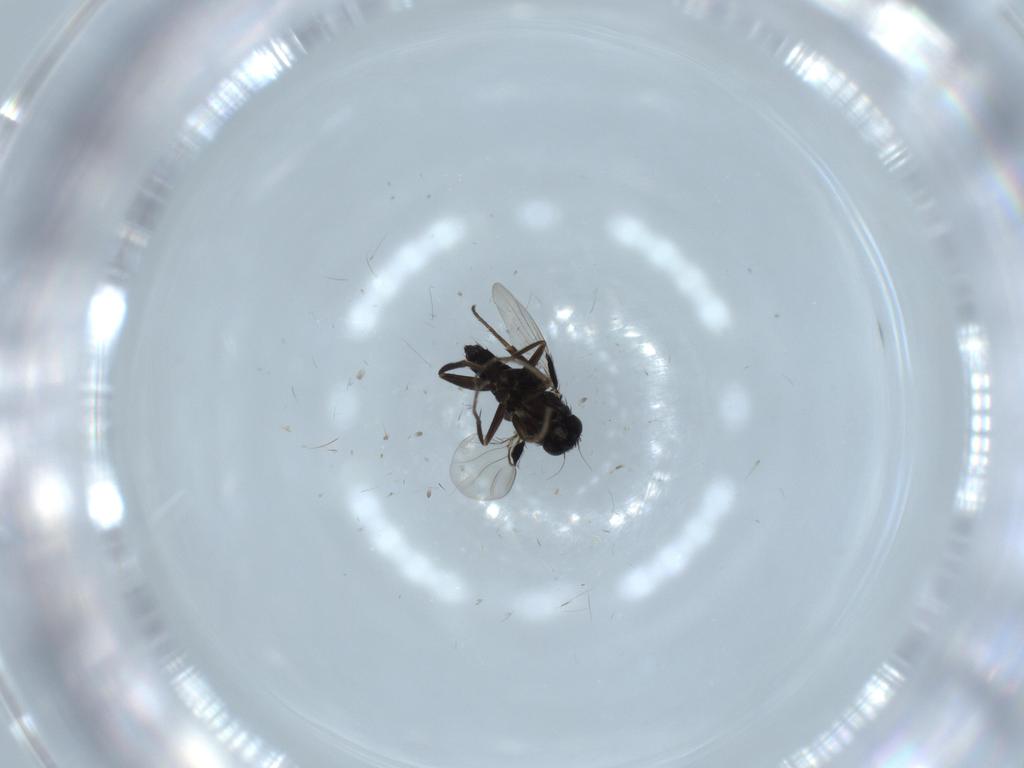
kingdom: Animalia
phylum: Arthropoda
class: Insecta
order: Diptera
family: Phoridae
